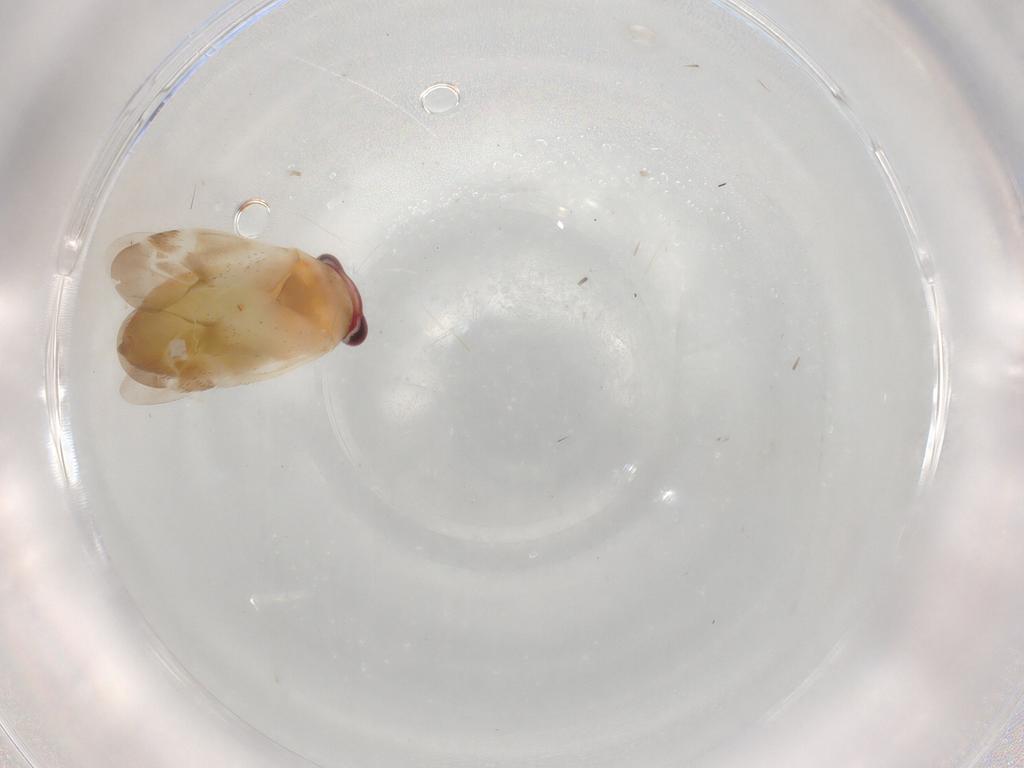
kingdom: Animalia
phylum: Arthropoda
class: Insecta
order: Hemiptera
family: Miridae
